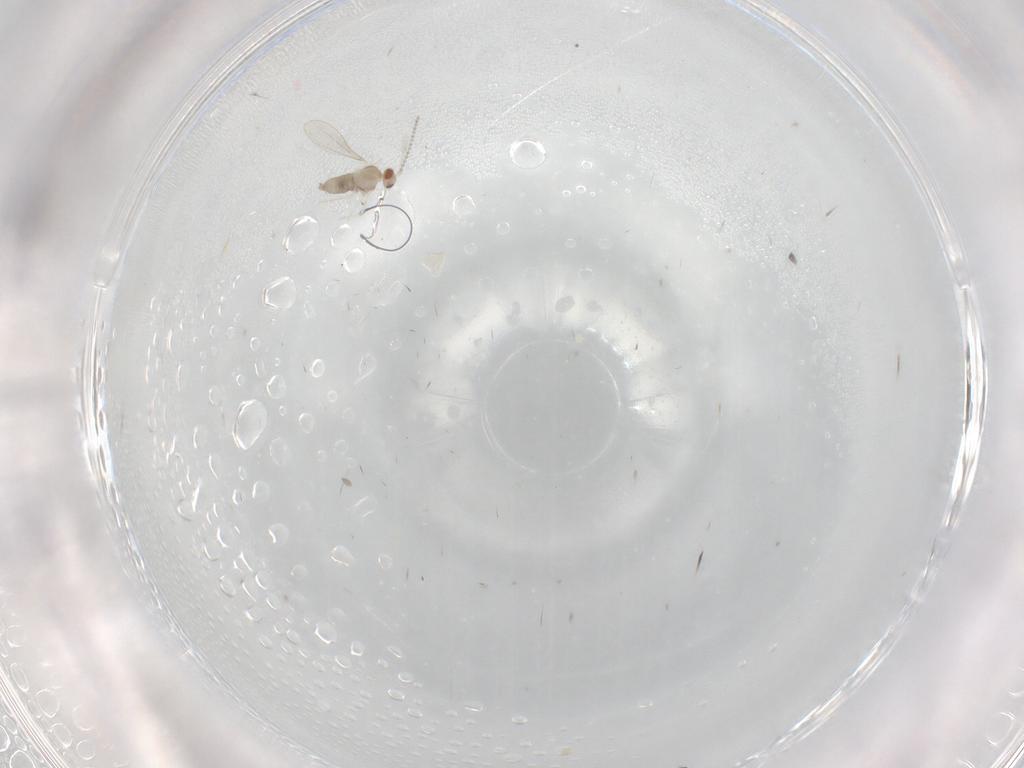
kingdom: Animalia
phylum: Arthropoda
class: Insecta
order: Diptera
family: Cecidomyiidae
